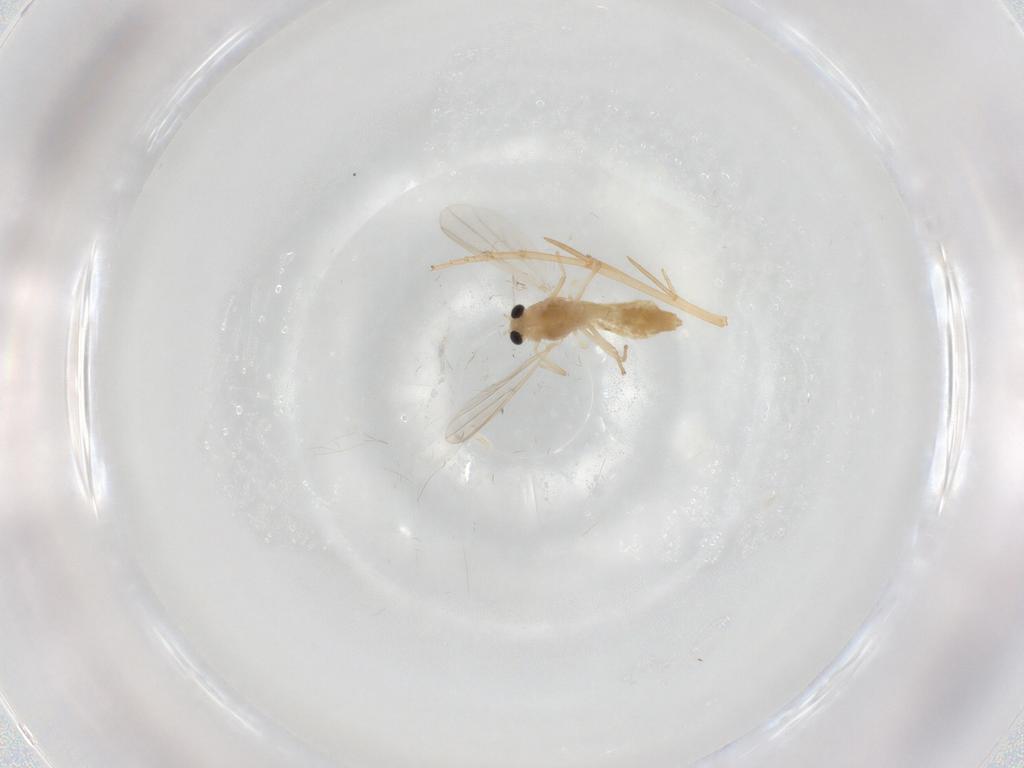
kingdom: Animalia
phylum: Arthropoda
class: Insecta
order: Diptera
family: Chironomidae
